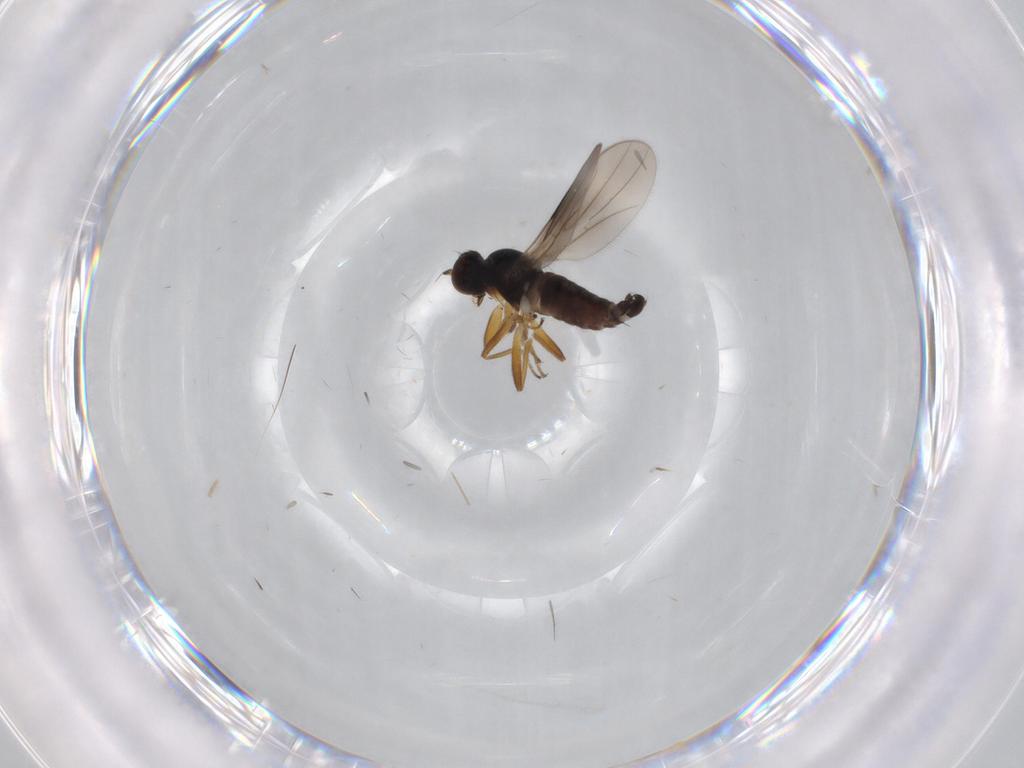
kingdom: Animalia
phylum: Arthropoda
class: Insecta
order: Diptera
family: Hybotidae
